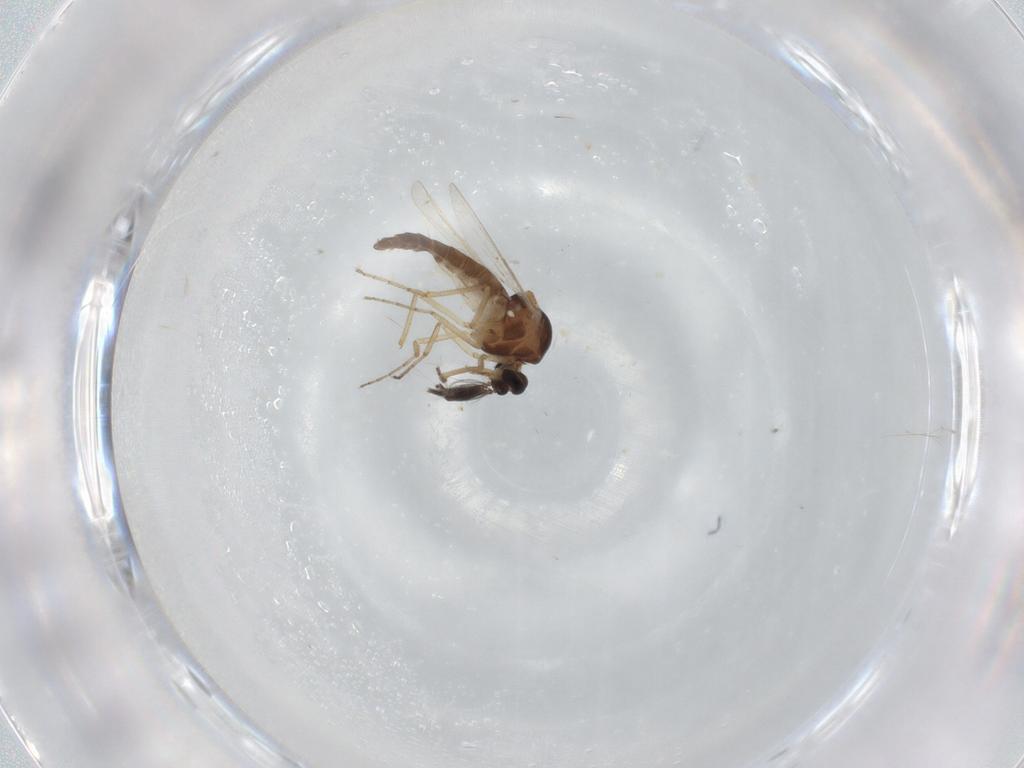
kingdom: Animalia
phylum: Arthropoda
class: Insecta
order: Diptera
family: Ceratopogonidae
